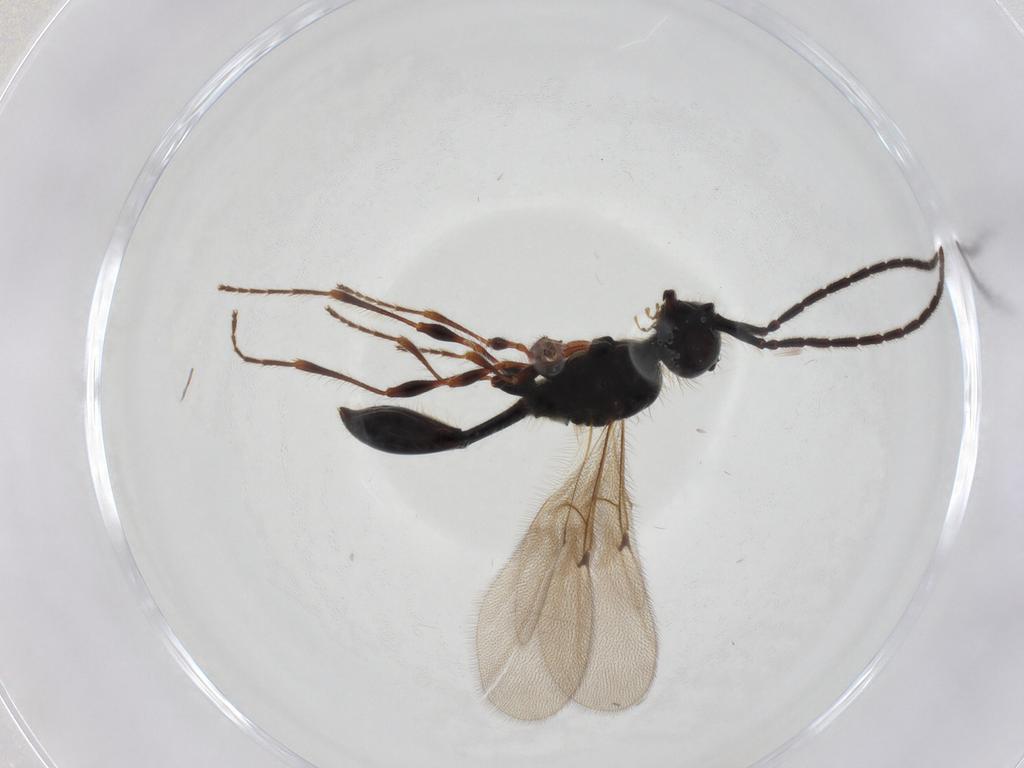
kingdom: Animalia
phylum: Arthropoda
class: Insecta
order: Hymenoptera
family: Diapriidae
